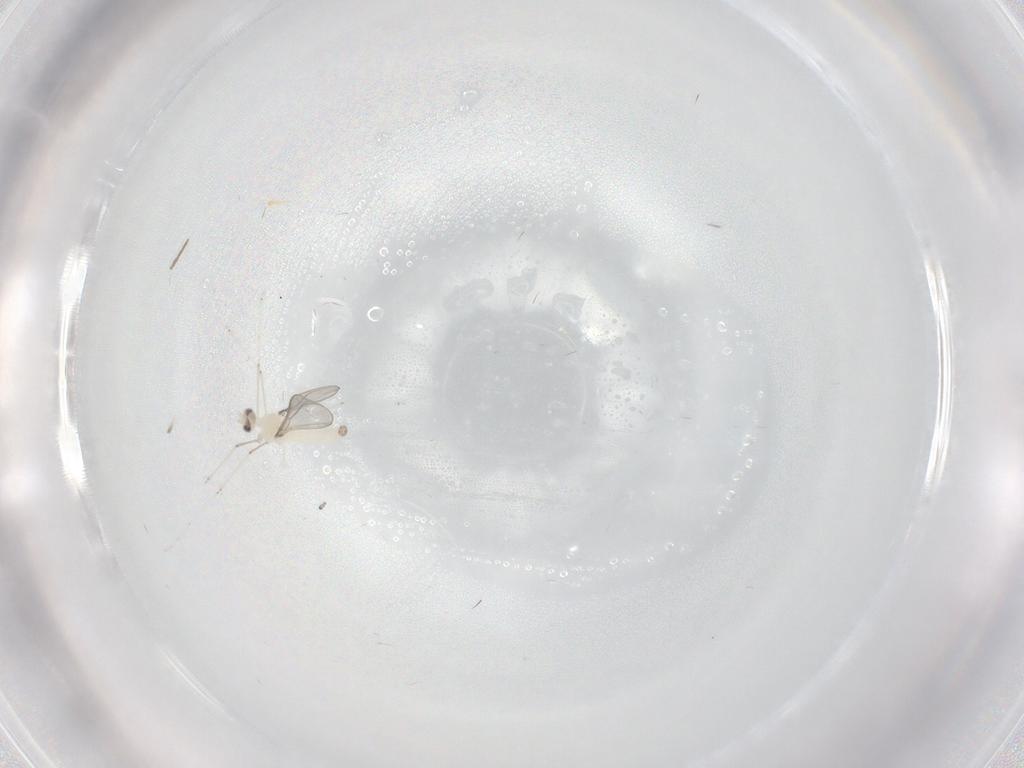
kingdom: Animalia
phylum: Arthropoda
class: Insecta
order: Diptera
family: Cecidomyiidae
